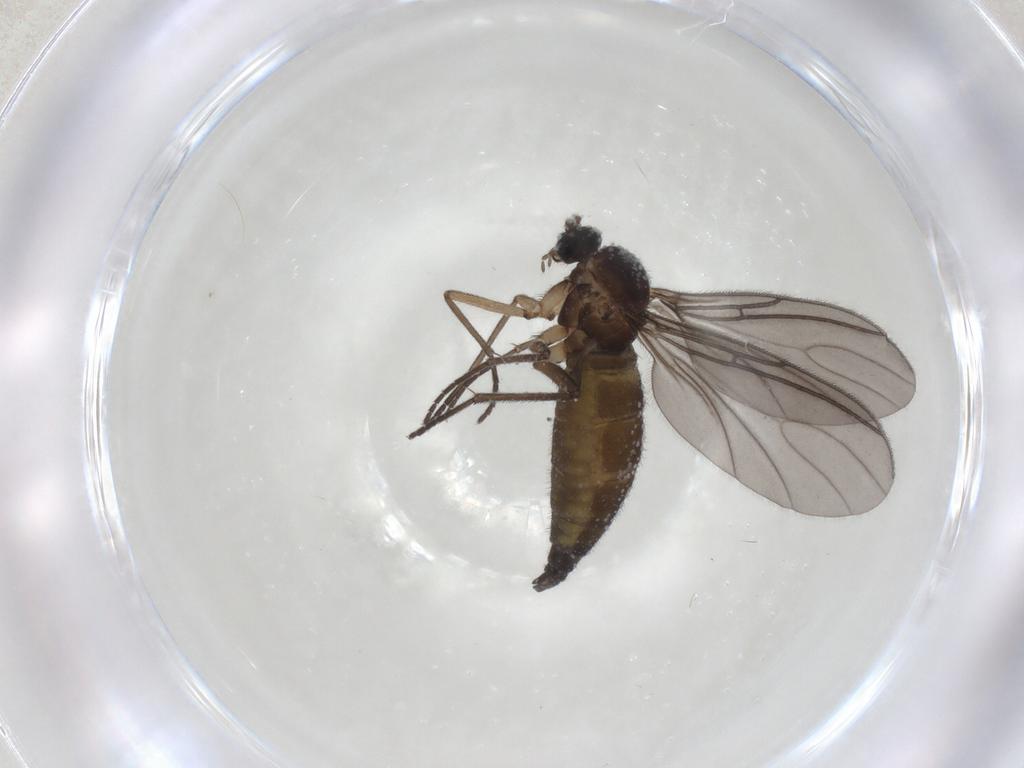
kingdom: Animalia
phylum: Arthropoda
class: Insecta
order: Diptera
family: Sciaridae
